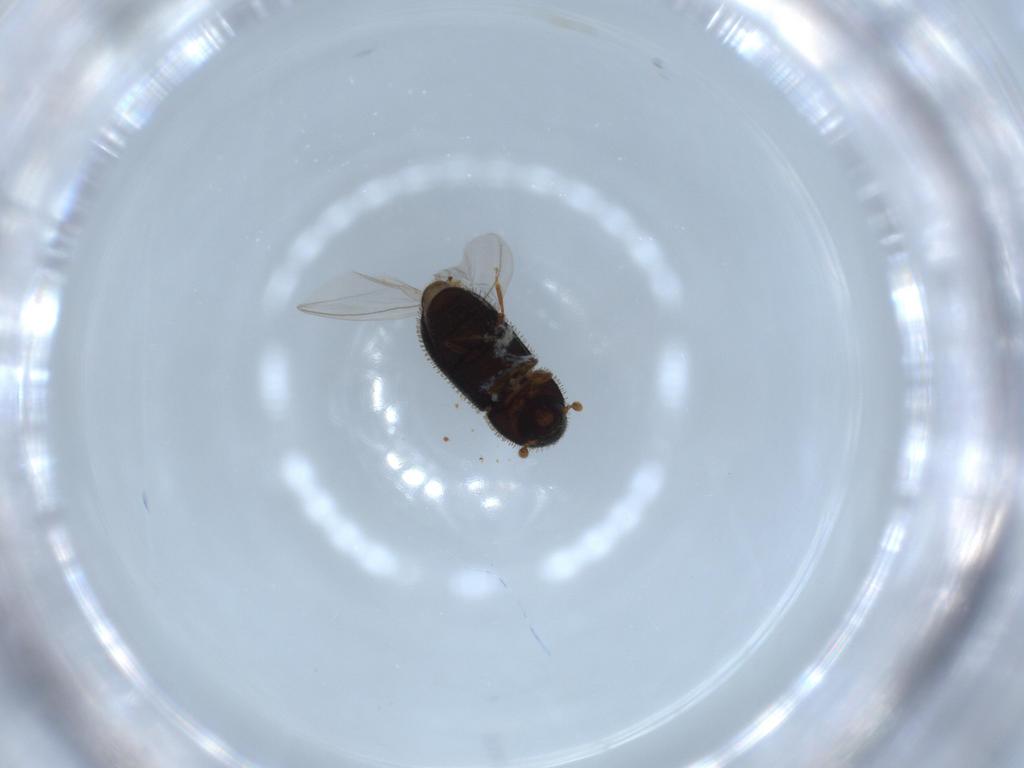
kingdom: Animalia
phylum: Arthropoda
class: Insecta
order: Coleoptera
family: Curculionidae
